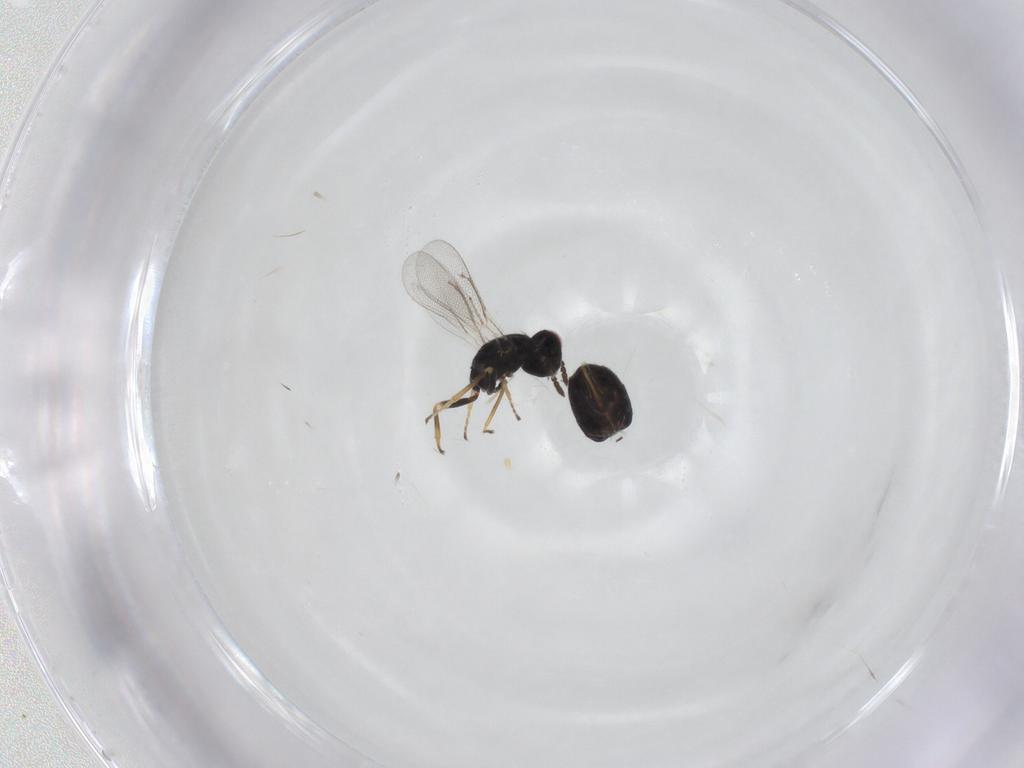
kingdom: Animalia
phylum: Arthropoda
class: Insecta
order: Hymenoptera
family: Eulophidae
